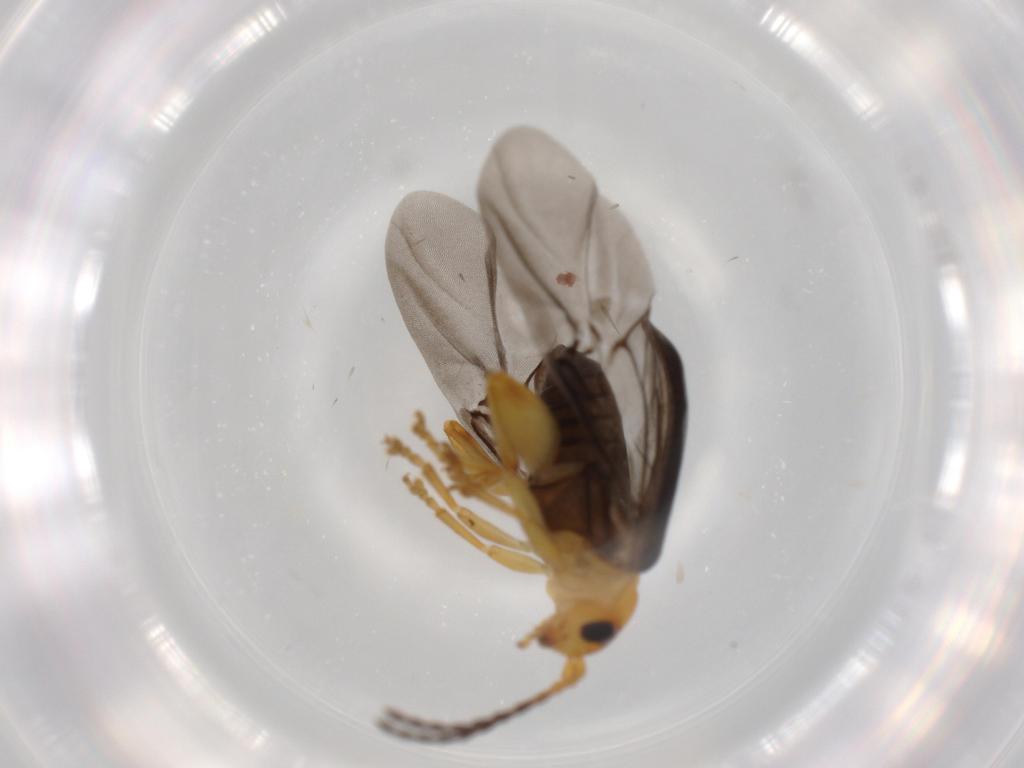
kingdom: Animalia
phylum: Arthropoda
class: Insecta
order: Coleoptera
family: Chrysomelidae
